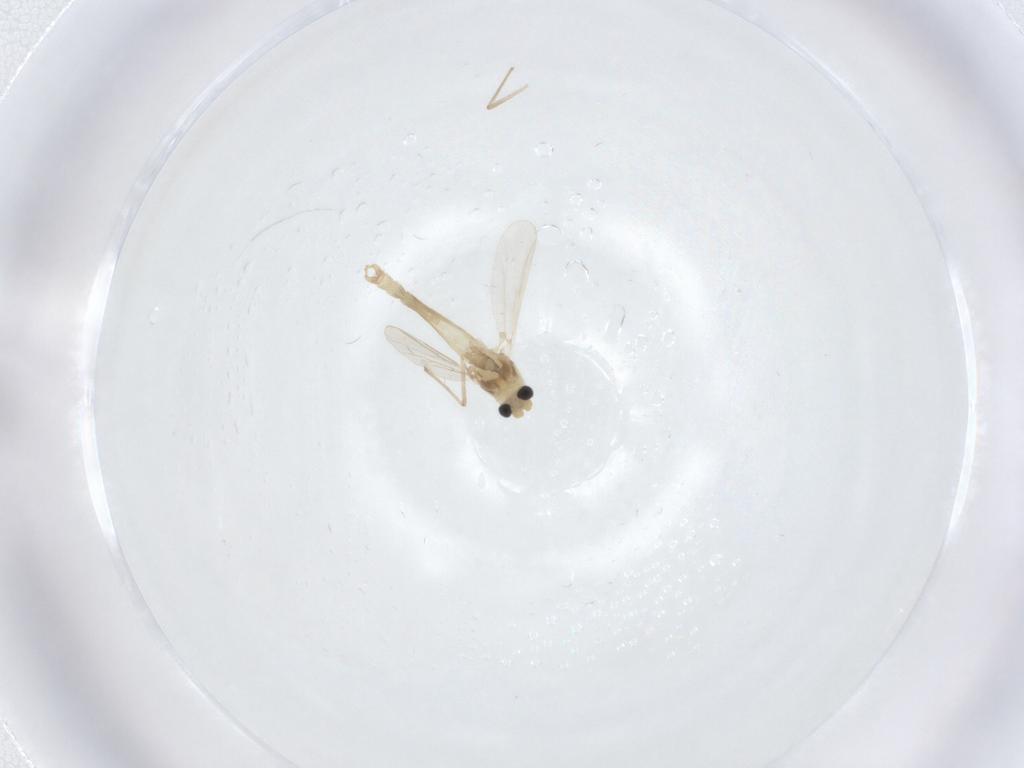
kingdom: Animalia
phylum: Arthropoda
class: Insecta
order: Diptera
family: Chironomidae
